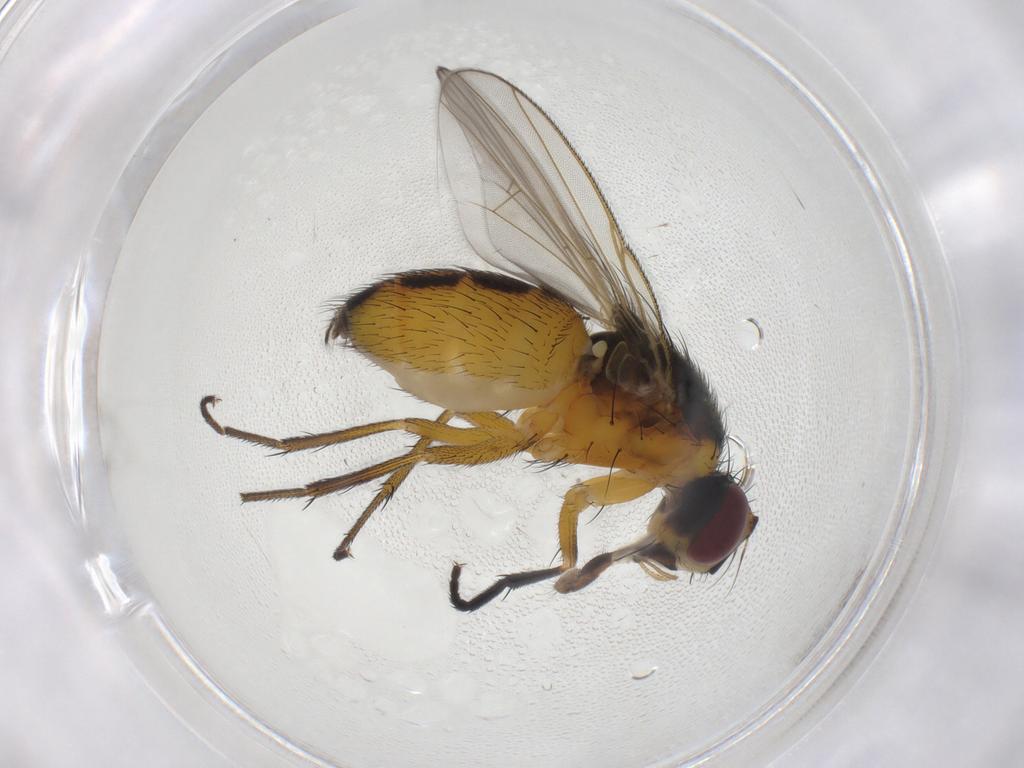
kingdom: Animalia
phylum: Arthropoda
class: Insecta
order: Diptera
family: Muscidae
